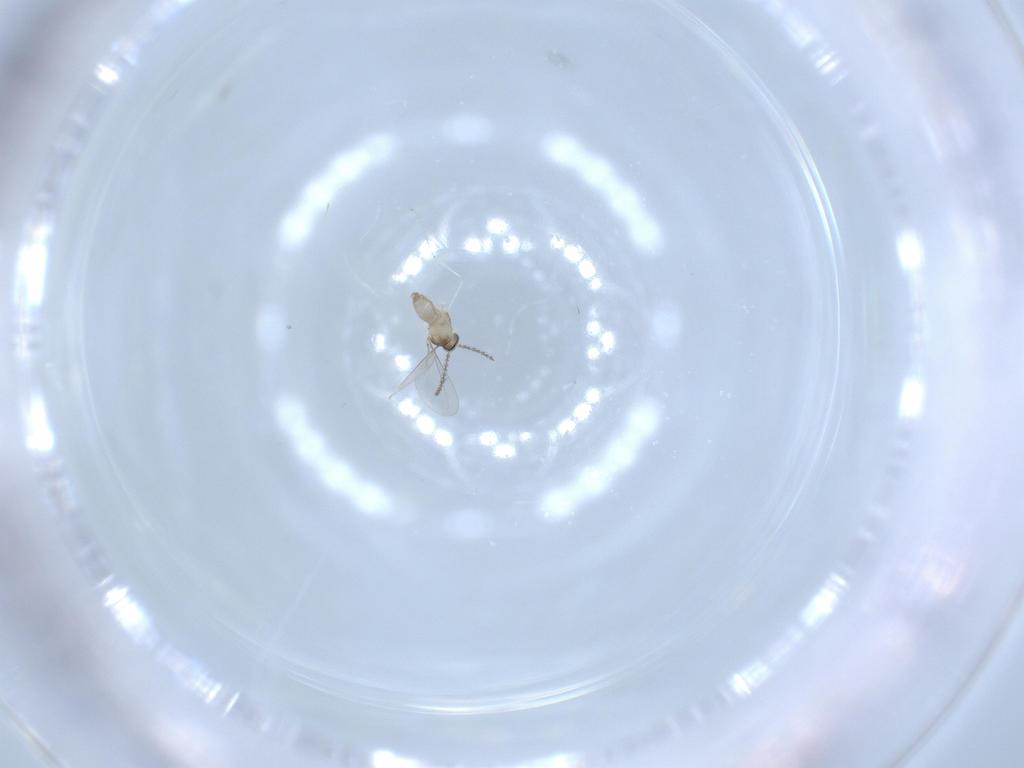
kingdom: Animalia
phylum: Arthropoda
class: Insecta
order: Diptera
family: Cecidomyiidae
